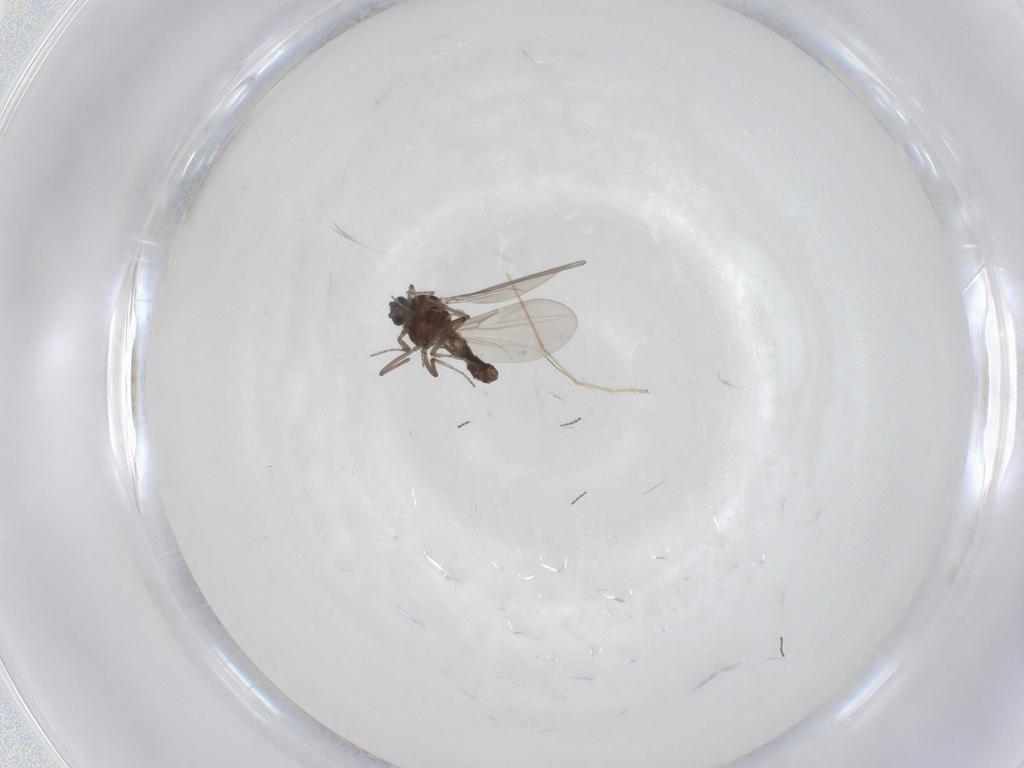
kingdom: Animalia
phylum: Arthropoda
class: Insecta
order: Diptera
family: Ceratopogonidae
